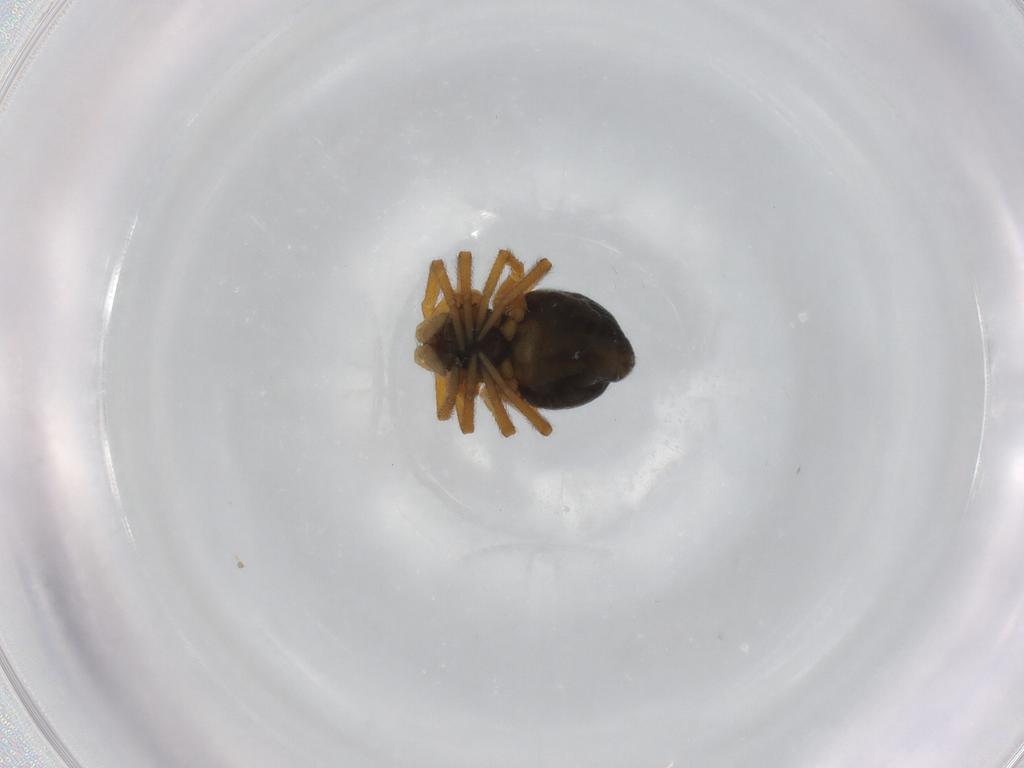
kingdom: Animalia
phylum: Arthropoda
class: Arachnida
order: Araneae
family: Linyphiidae
